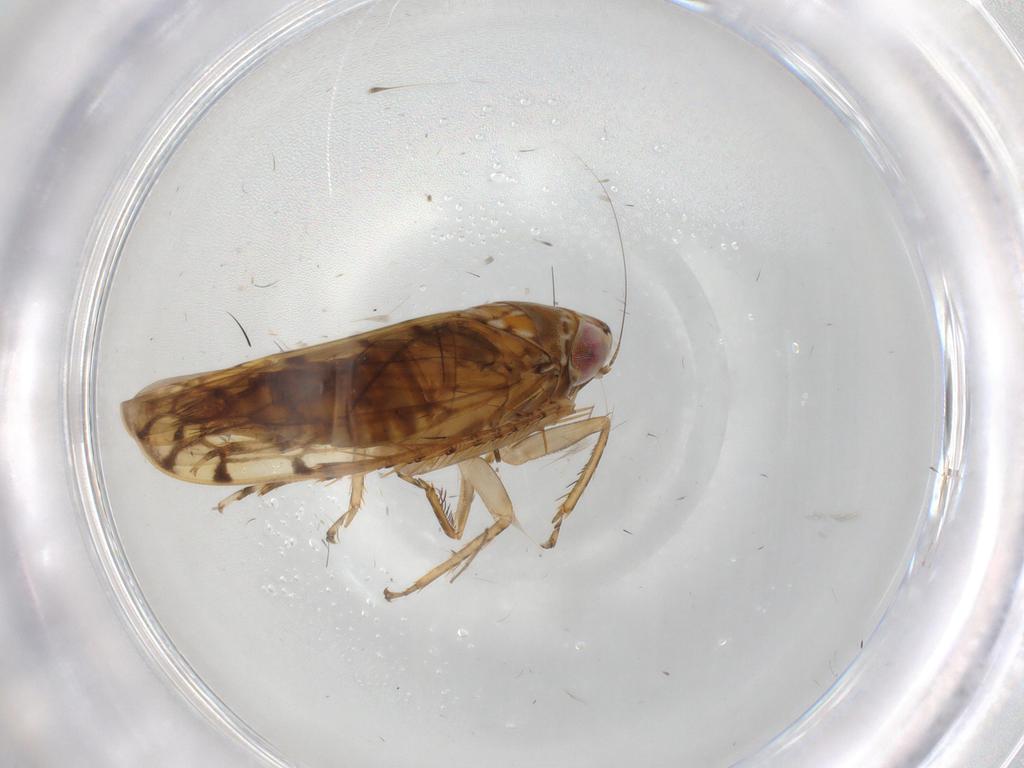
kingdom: Animalia
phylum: Arthropoda
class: Insecta
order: Hemiptera
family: Cicadellidae
